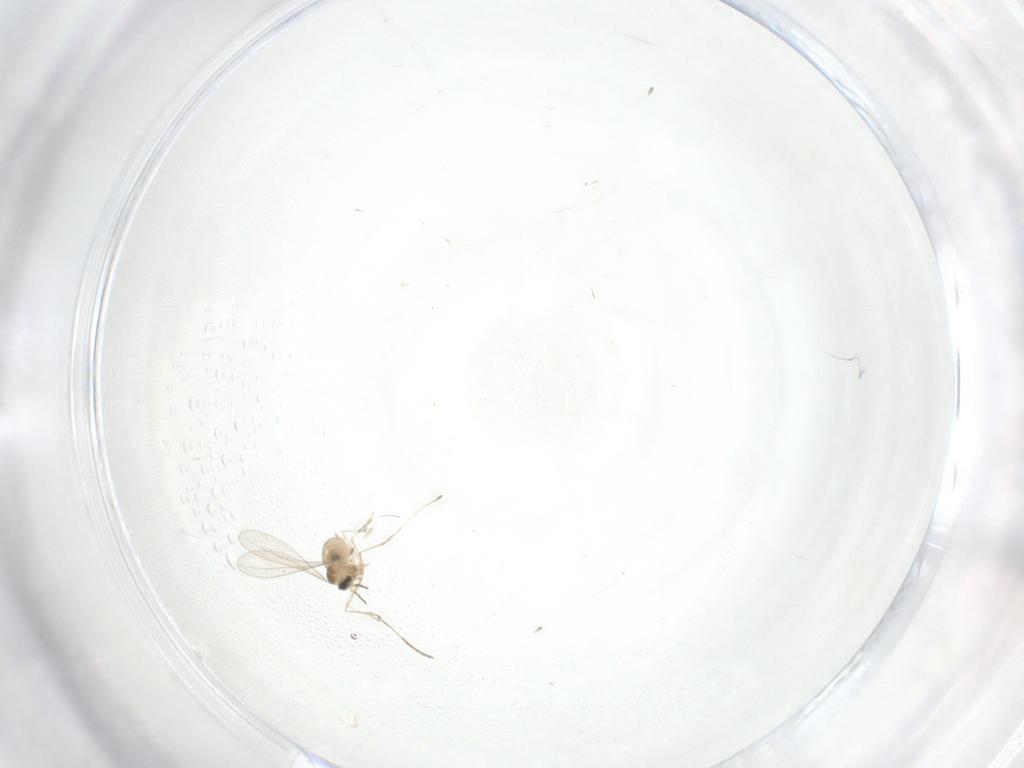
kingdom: Animalia
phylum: Arthropoda
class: Insecta
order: Diptera
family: Cecidomyiidae
